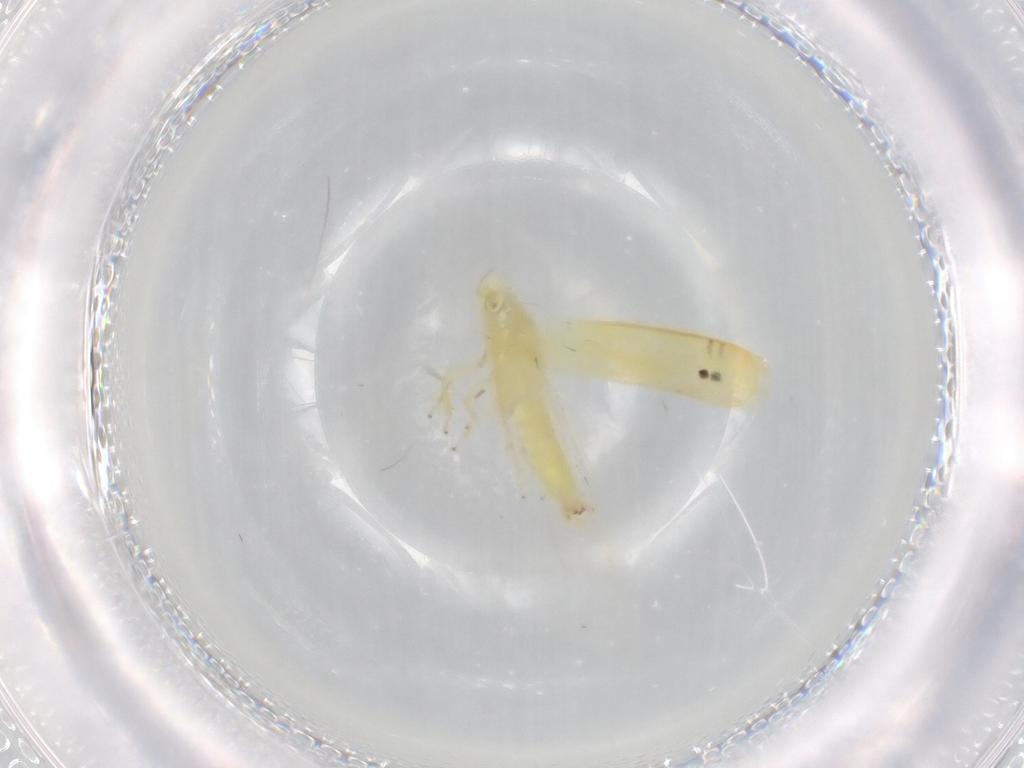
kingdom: Animalia
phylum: Arthropoda
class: Insecta
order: Hemiptera
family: Cicadellidae
